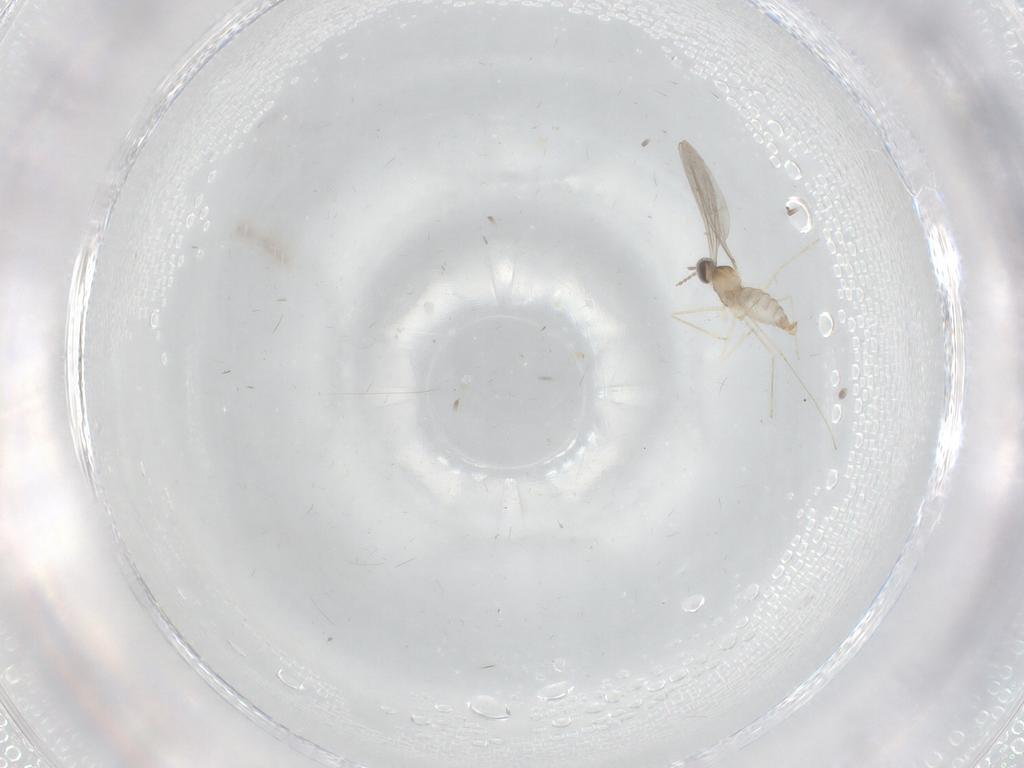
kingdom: Animalia
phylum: Arthropoda
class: Insecta
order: Diptera
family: Cecidomyiidae
